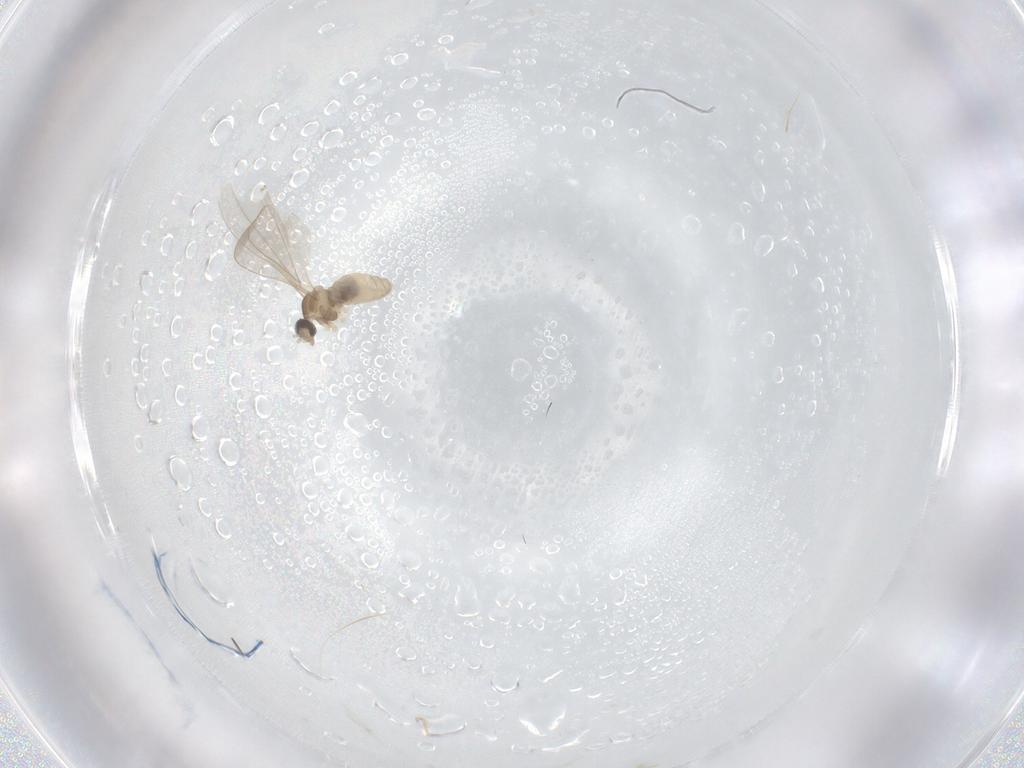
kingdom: Animalia
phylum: Arthropoda
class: Insecta
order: Diptera
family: Cecidomyiidae
